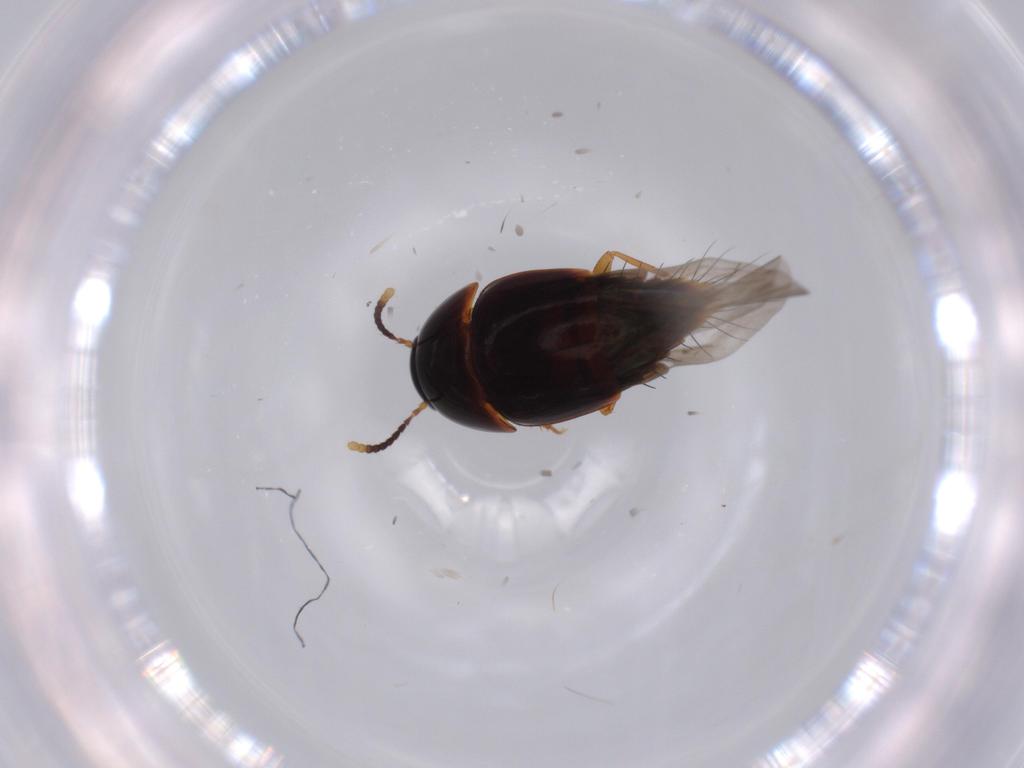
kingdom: Animalia
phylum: Arthropoda
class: Insecta
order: Coleoptera
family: Staphylinidae
